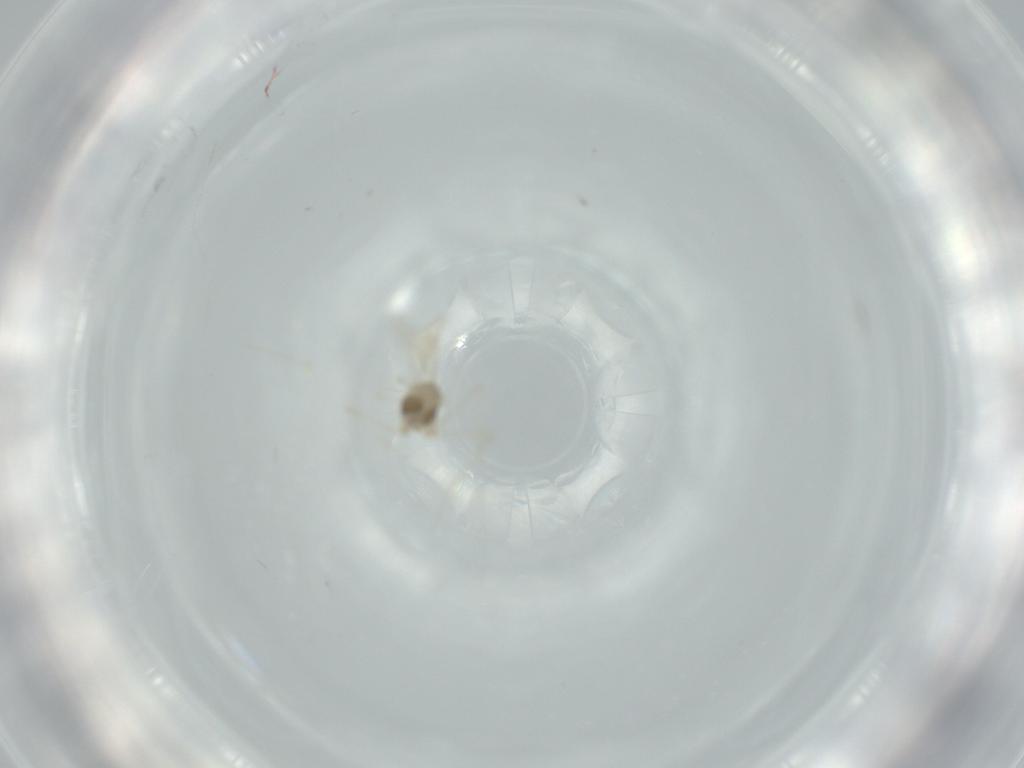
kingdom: Animalia
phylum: Arthropoda
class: Insecta
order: Diptera
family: Cecidomyiidae
